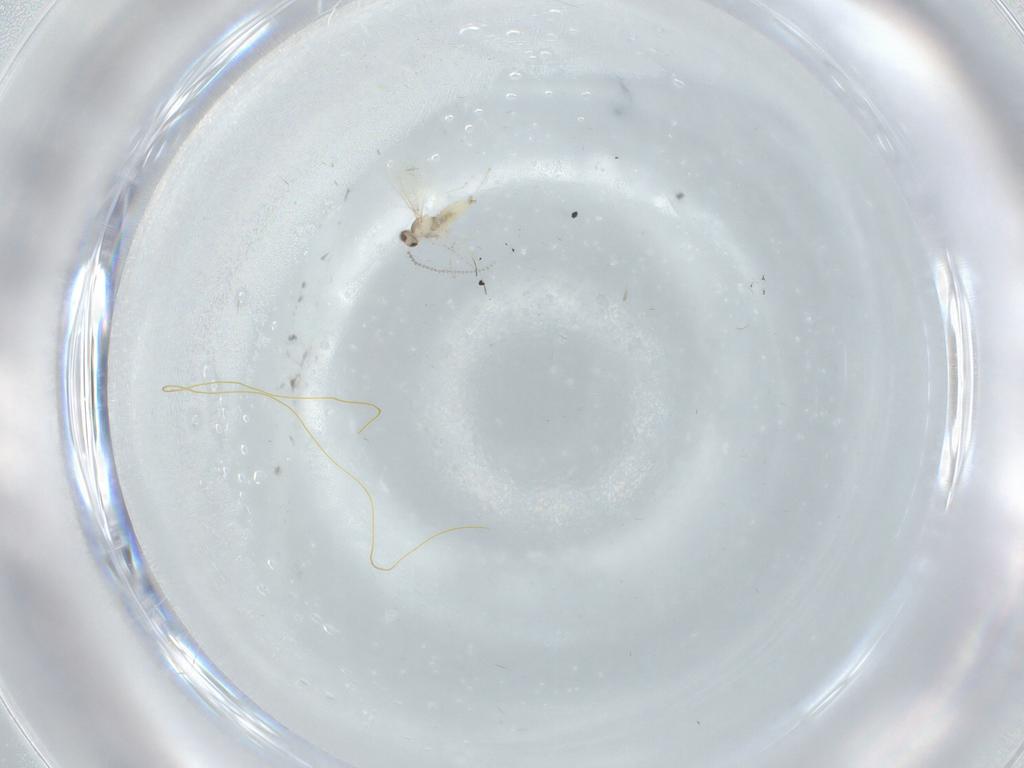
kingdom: Animalia
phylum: Arthropoda
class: Insecta
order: Diptera
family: Cecidomyiidae
